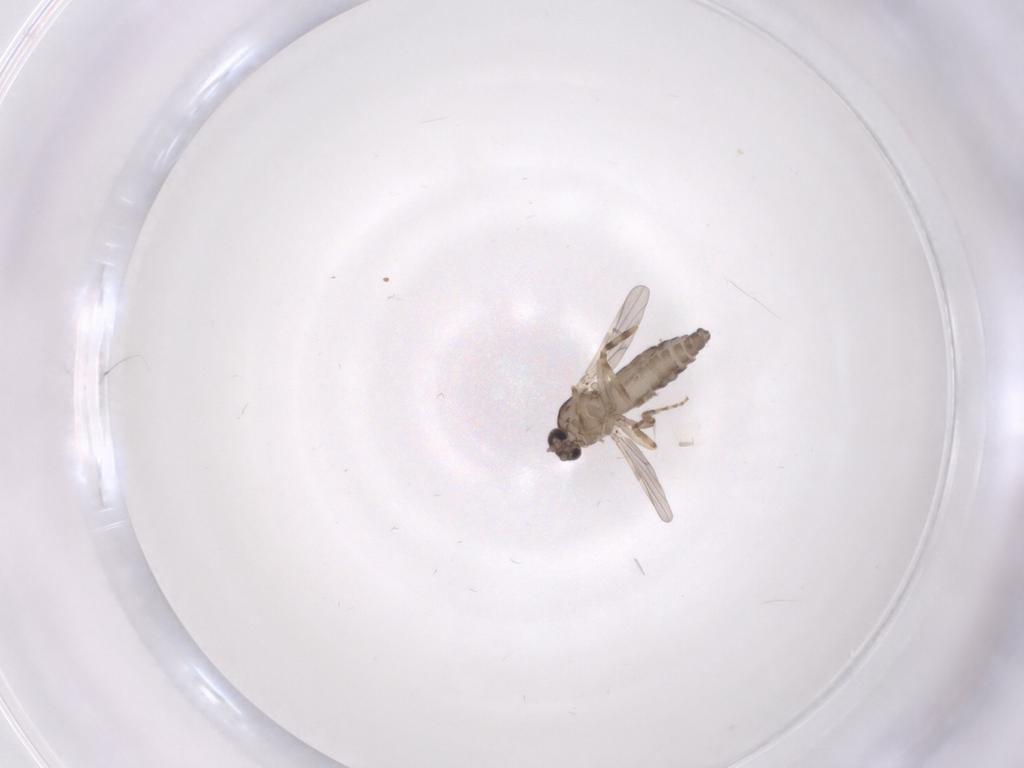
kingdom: Animalia
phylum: Arthropoda
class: Insecta
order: Diptera
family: Ceratopogonidae
